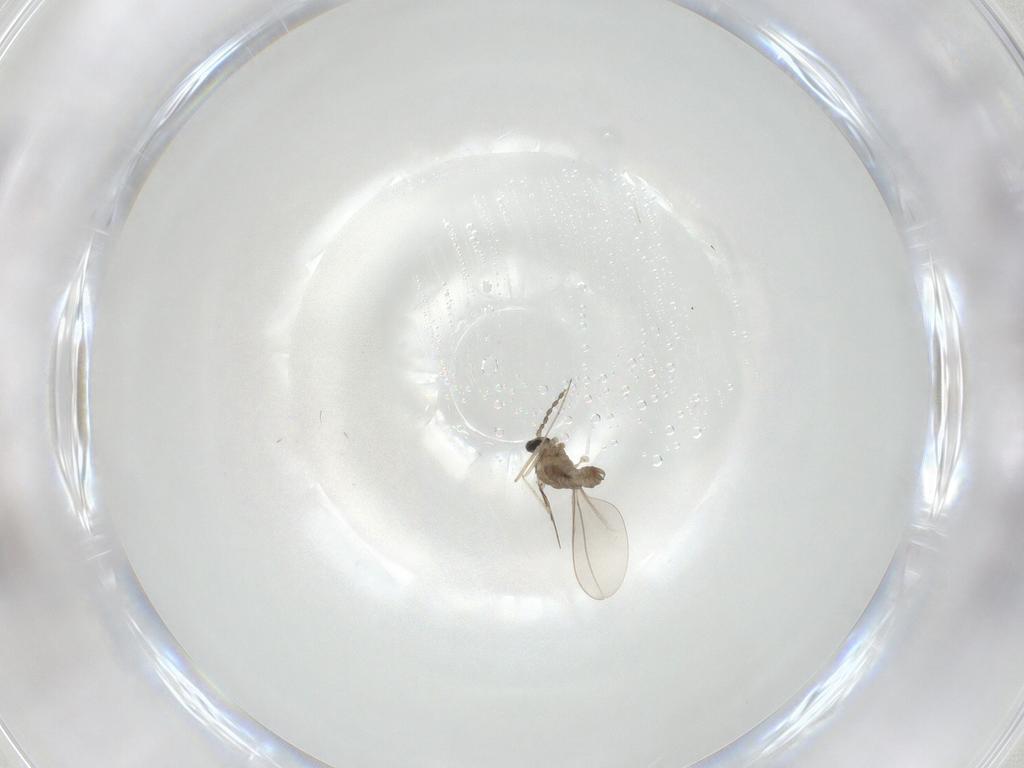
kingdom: Animalia
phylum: Arthropoda
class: Insecta
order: Diptera
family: Cecidomyiidae
